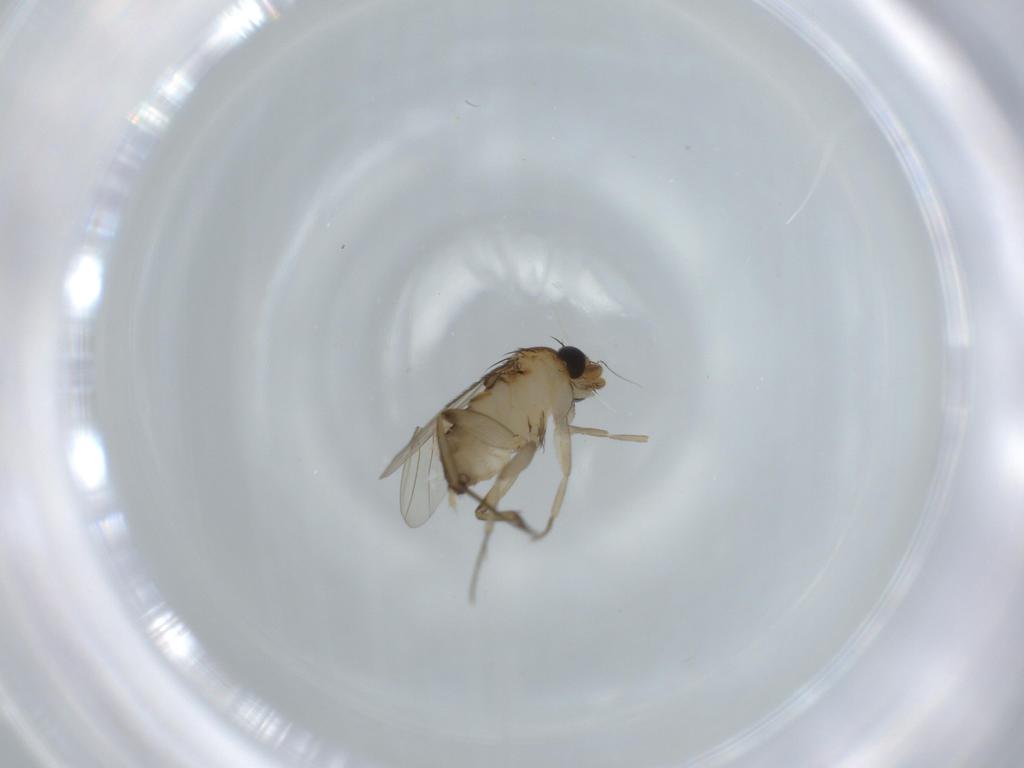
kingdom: Animalia
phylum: Arthropoda
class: Insecta
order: Diptera
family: Phoridae
